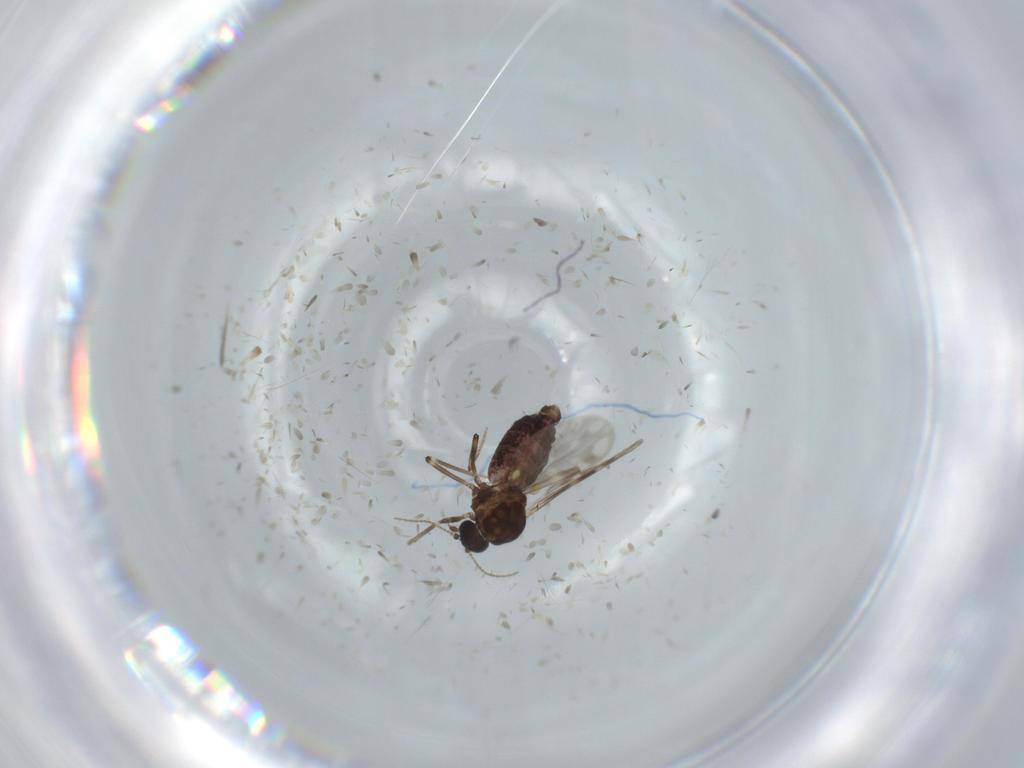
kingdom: Animalia
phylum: Arthropoda
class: Insecta
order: Diptera
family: Ceratopogonidae
